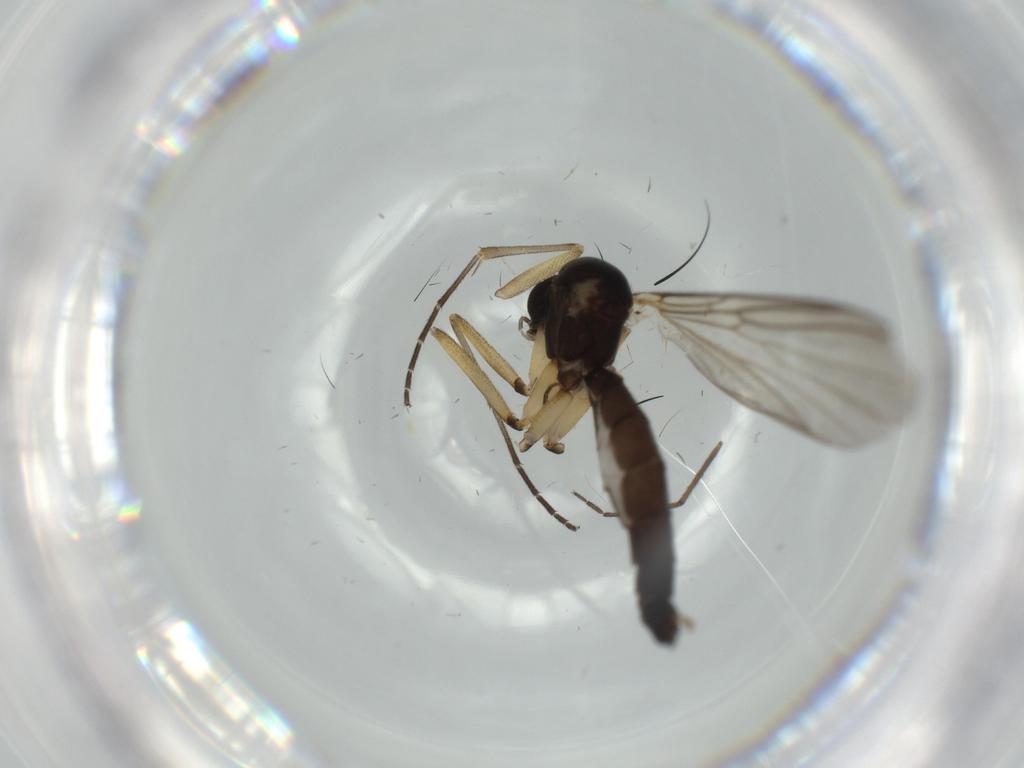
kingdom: Animalia
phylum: Arthropoda
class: Insecta
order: Diptera
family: Cecidomyiidae
